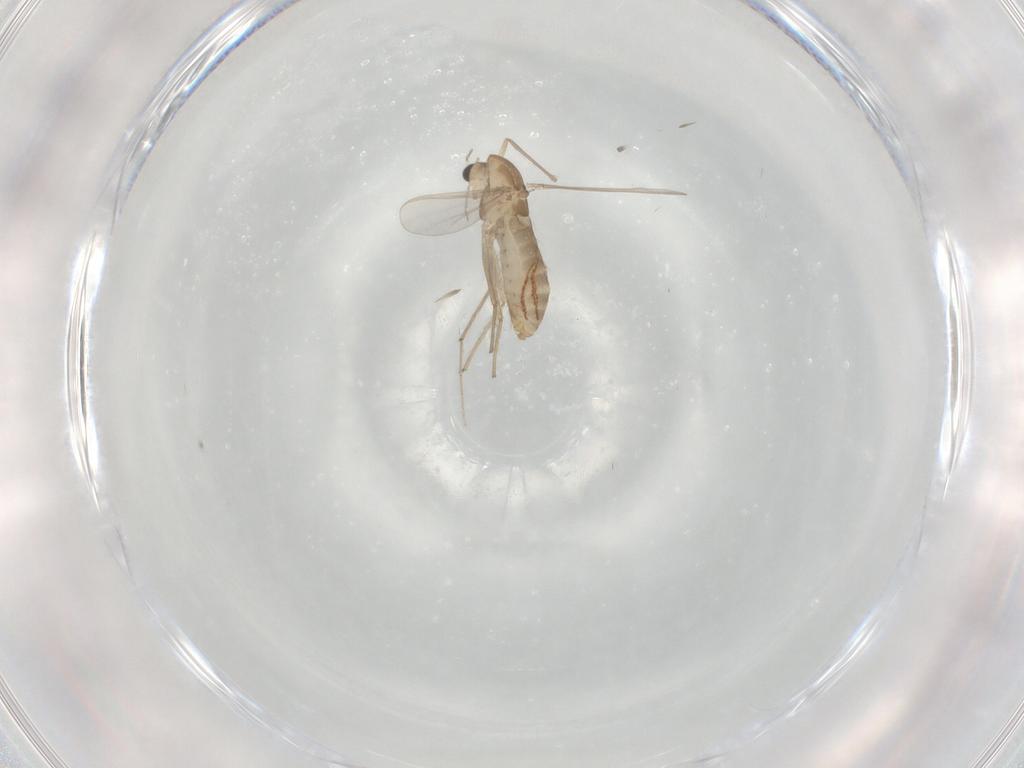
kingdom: Animalia
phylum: Arthropoda
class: Insecta
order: Diptera
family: Chironomidae
